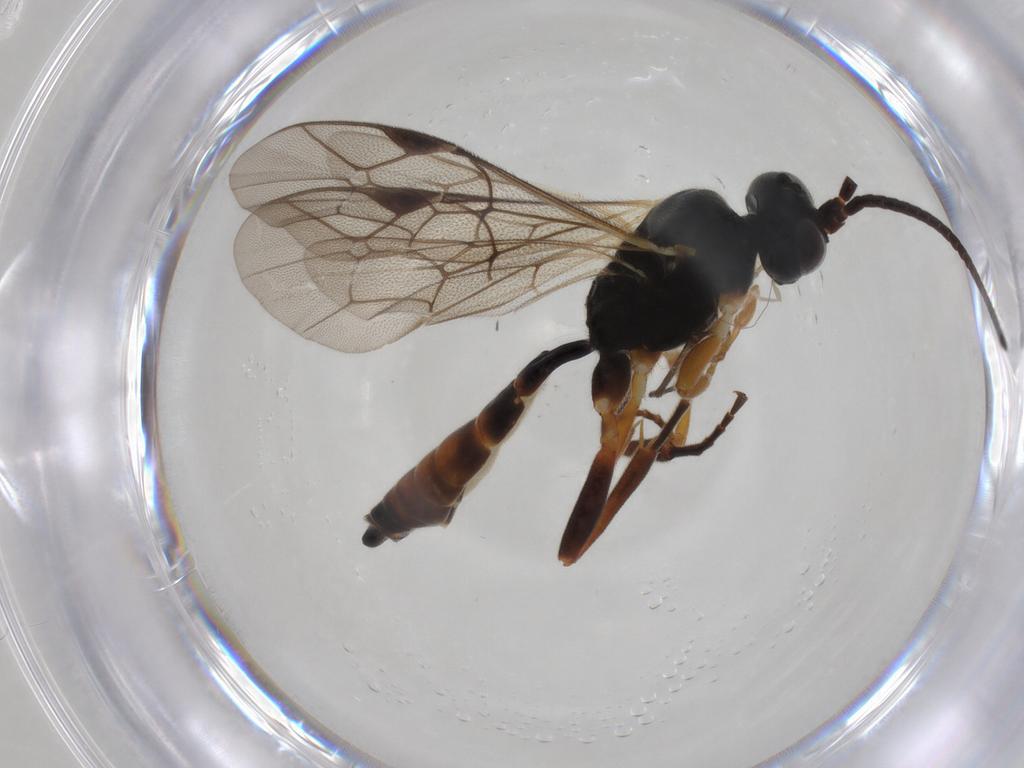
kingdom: Animalia
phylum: Arthropoda
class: Insecta
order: Hymenoptera
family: Ichneumonidae
